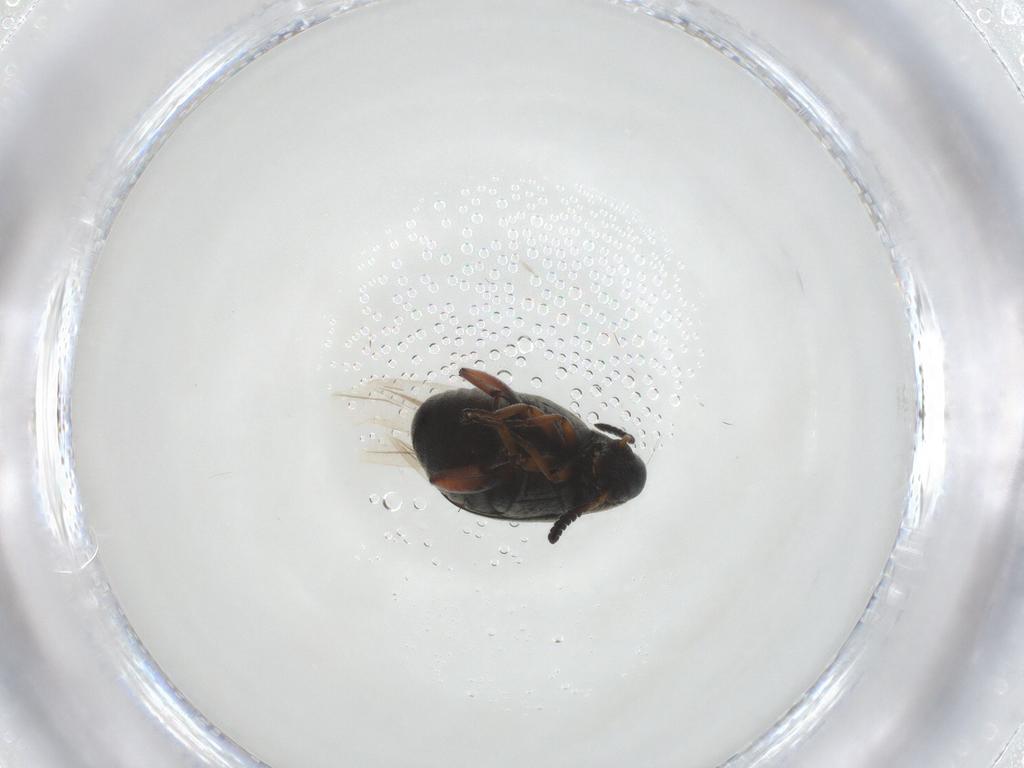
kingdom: Animalia
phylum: Arthropoda
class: Insecta
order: Coleoptera
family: Chrysomelidae
